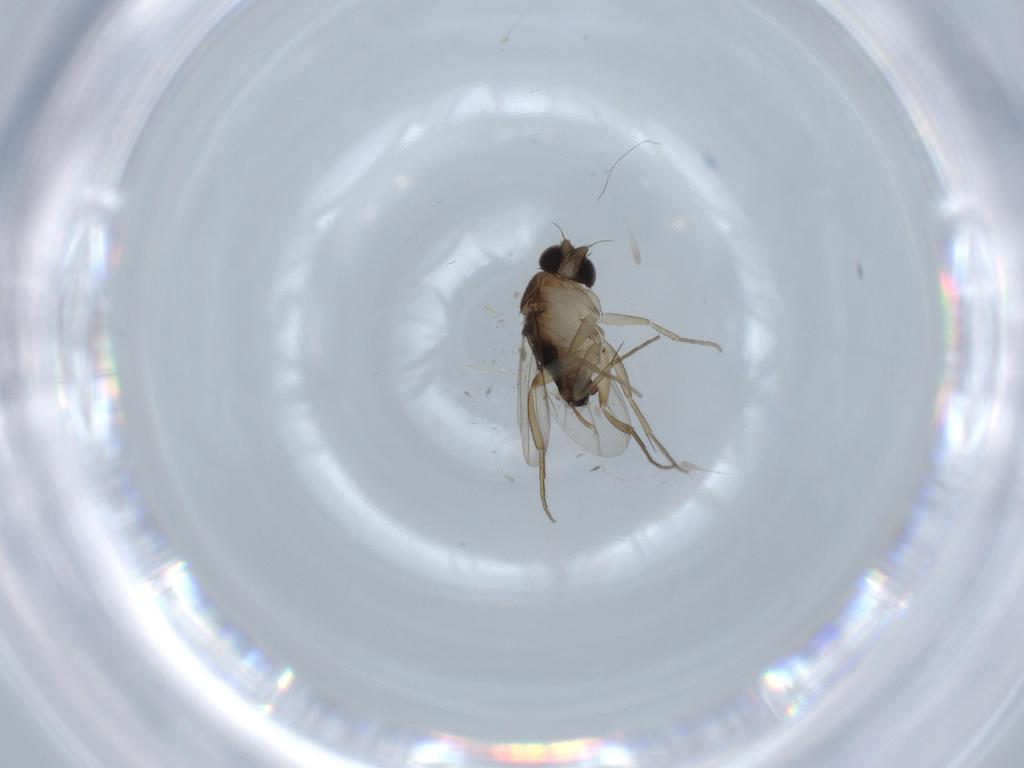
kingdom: Animalia
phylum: Arthropoda
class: Insecta
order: Diptera
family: Phoridae
